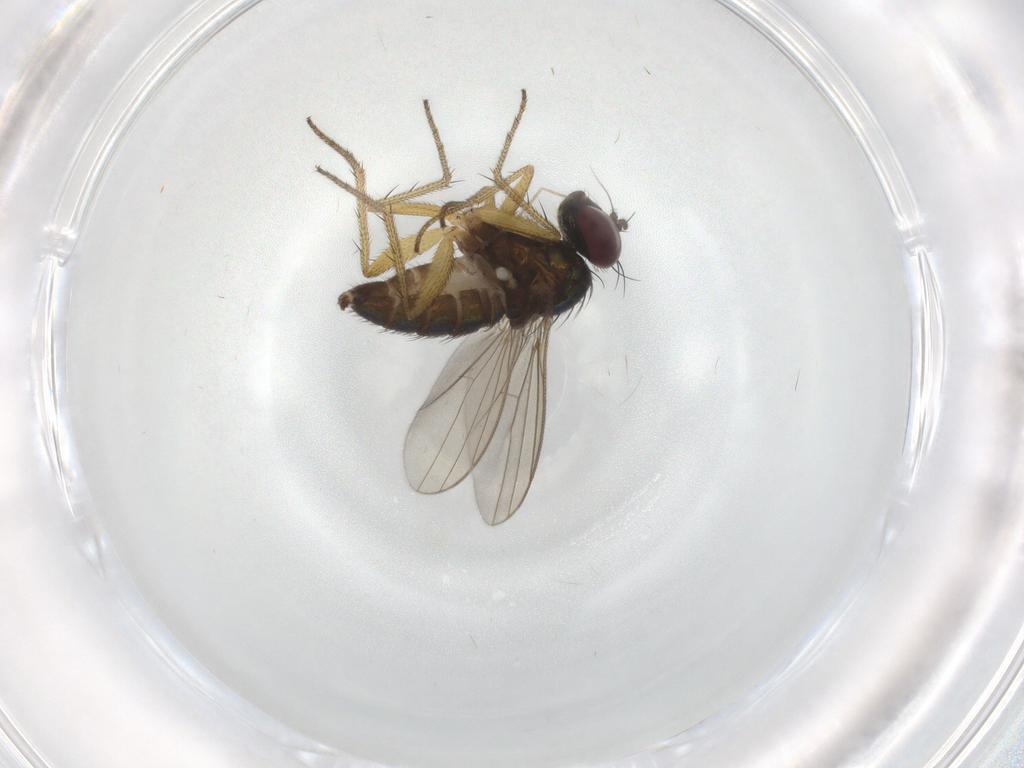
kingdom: Animalia
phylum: Arthropoda
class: Insecta
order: Diptera
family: Dolichopodidae
